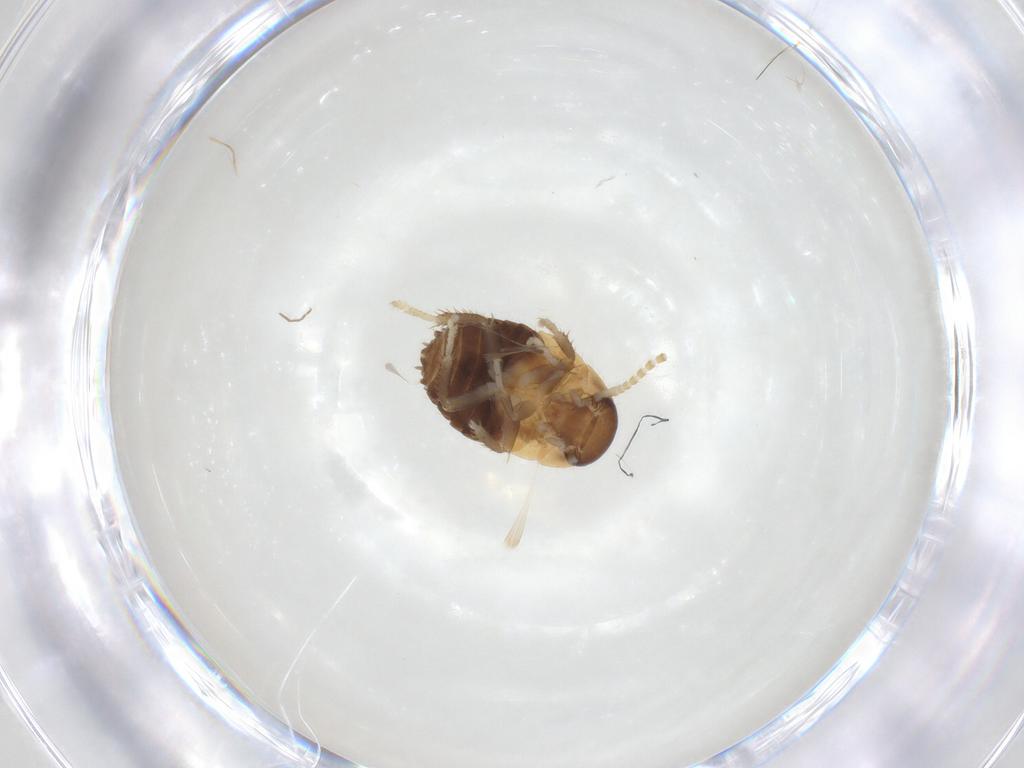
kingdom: Animalia
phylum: Arthropoda
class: Insecta
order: Blattodea
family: Ectobiidae
